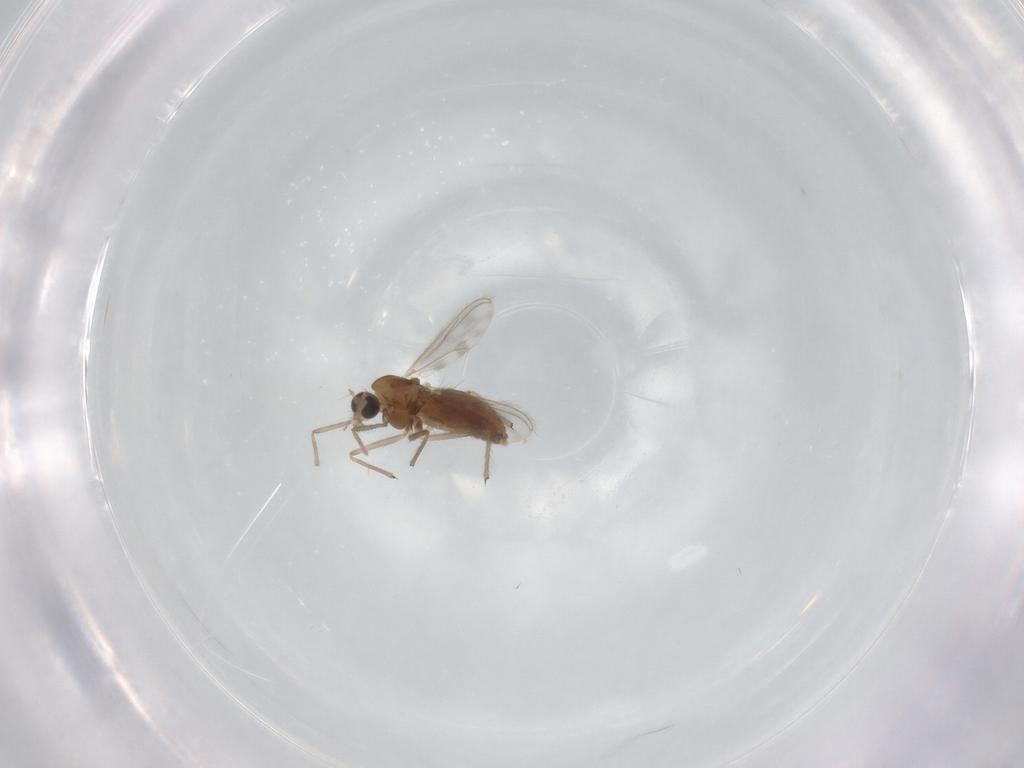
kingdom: Animalia
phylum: Arthropoda
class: Insecta
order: Diptera
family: Chironomidae
